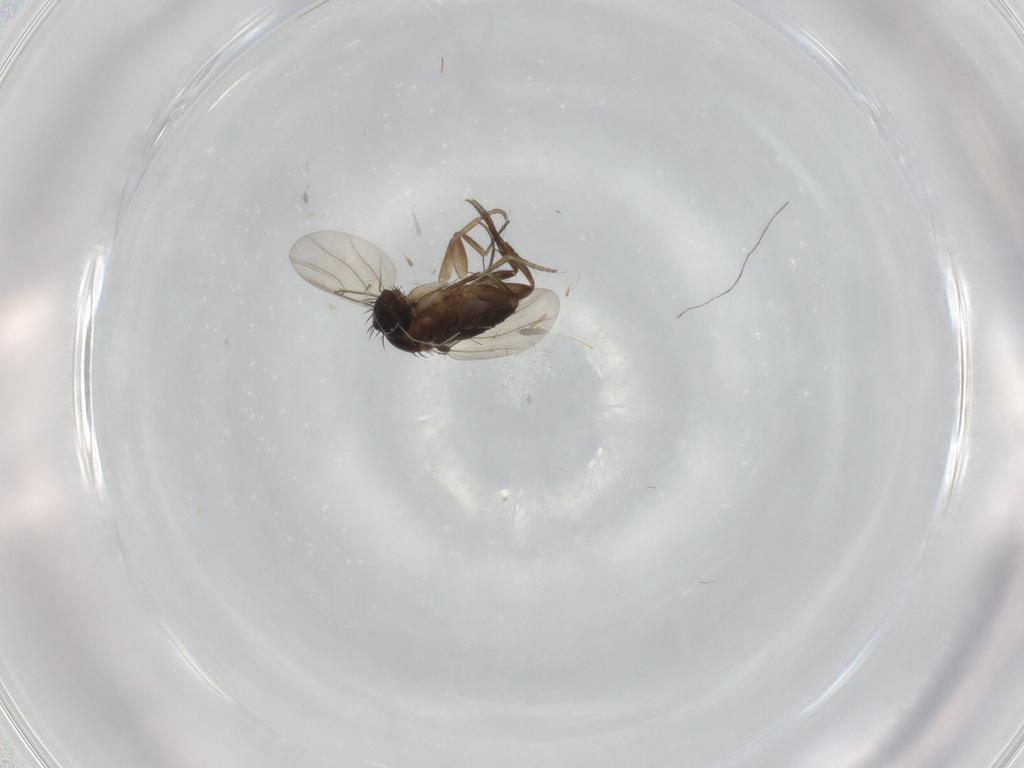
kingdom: Animalia
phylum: Arthropoda
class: Insecta
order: Diptera
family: Phoridae
